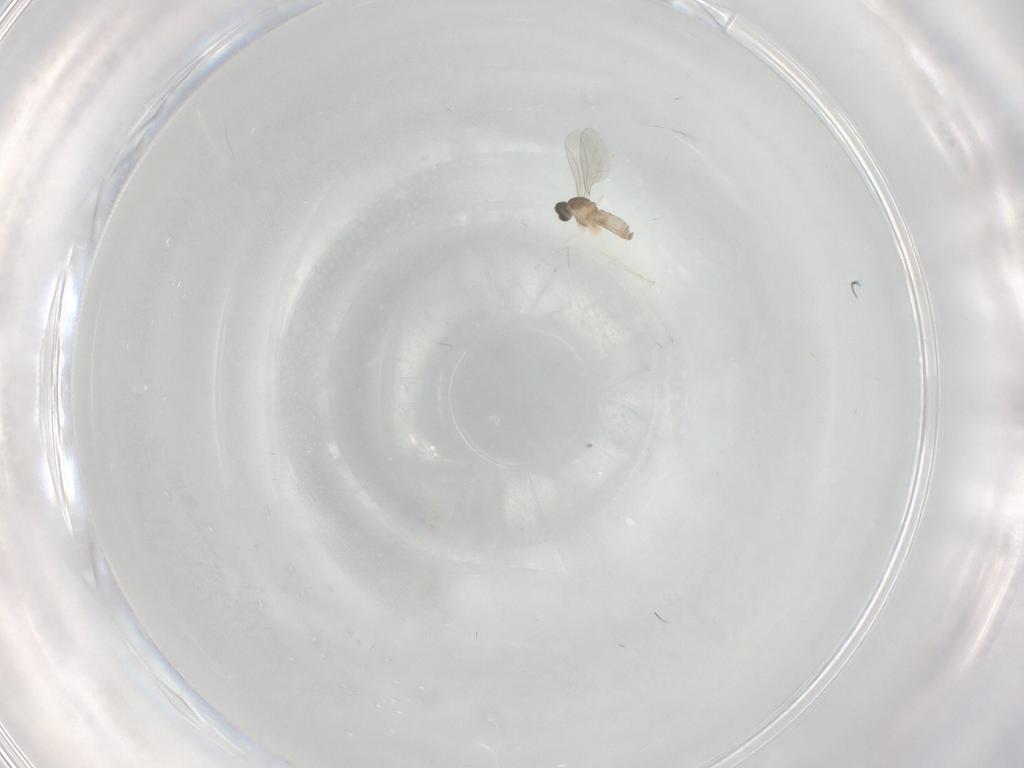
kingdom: Animalia
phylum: Arthropoda
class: Insecta
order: Diptera
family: Cecidomyiidae
